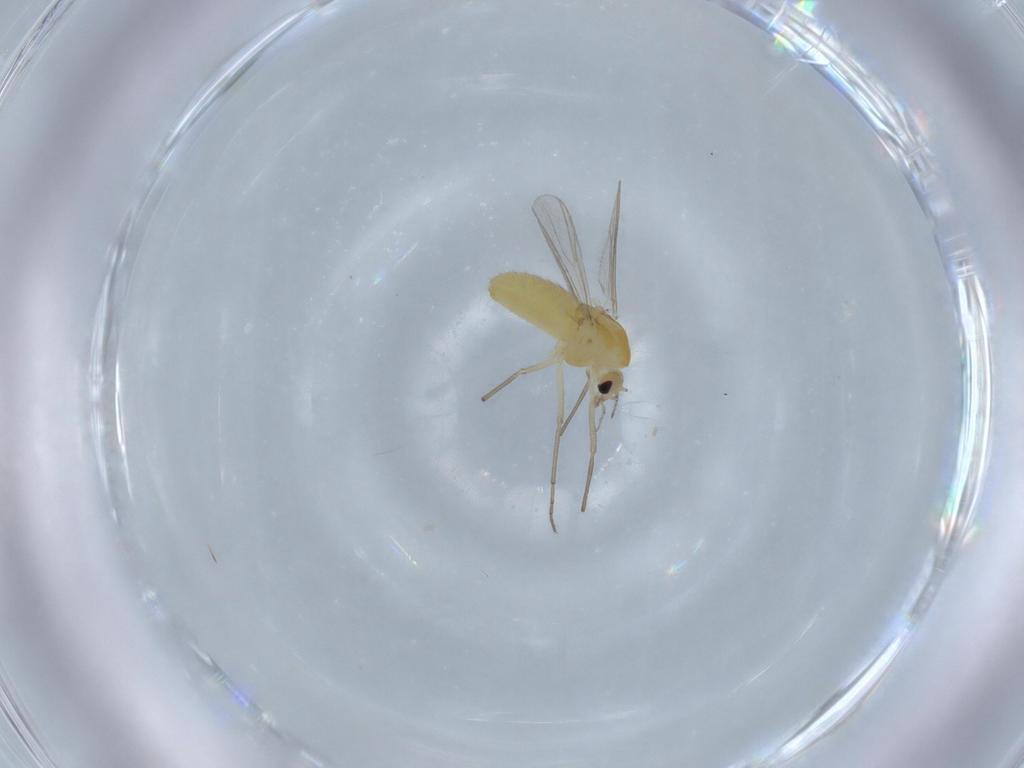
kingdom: Animalia
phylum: Arthropoda
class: Insecta
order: Diptera
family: Chironomidae
